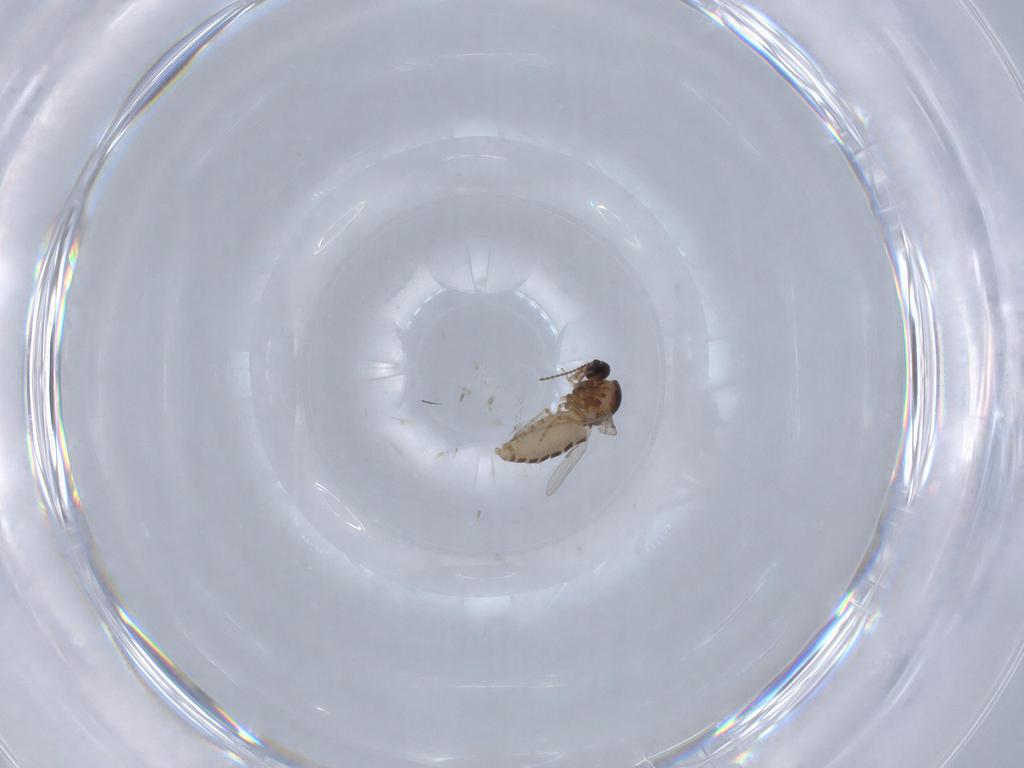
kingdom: Animalia
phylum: Arthropoda
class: Insecta
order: Diptera
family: Ceratopogonidae
